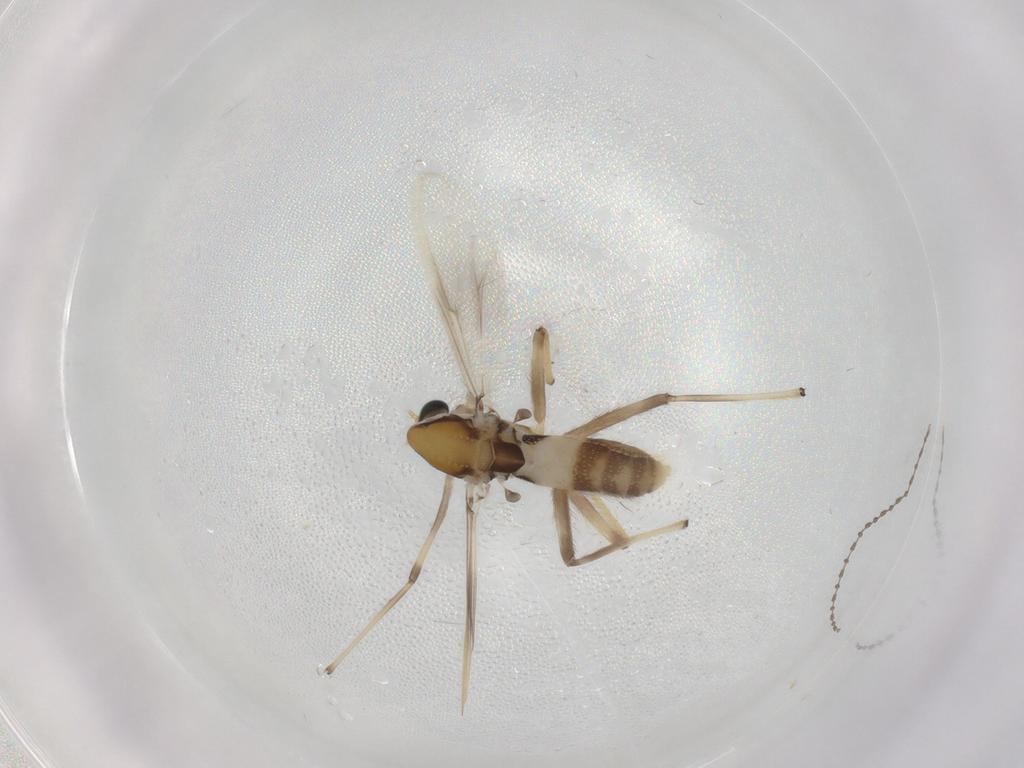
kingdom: Animalia
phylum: Arthropoda
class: Insecta
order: Diptera
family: Chironomidae
